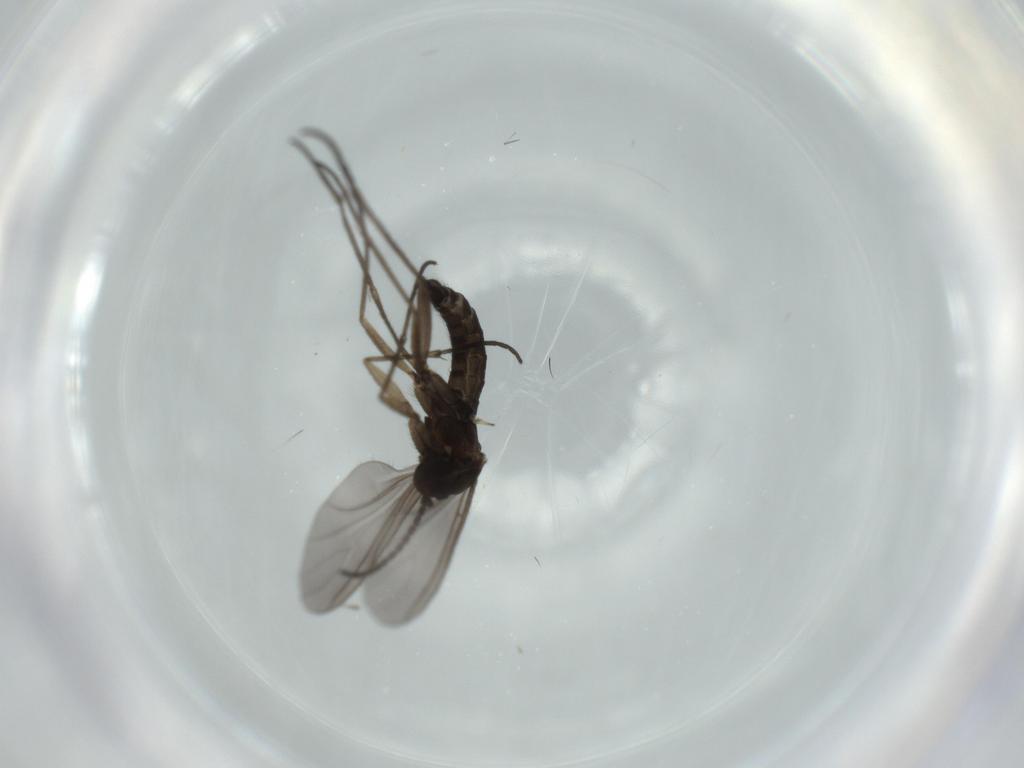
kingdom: Animalia
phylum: Arthropoda
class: Insecta
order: Diptera
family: Sciaridae
